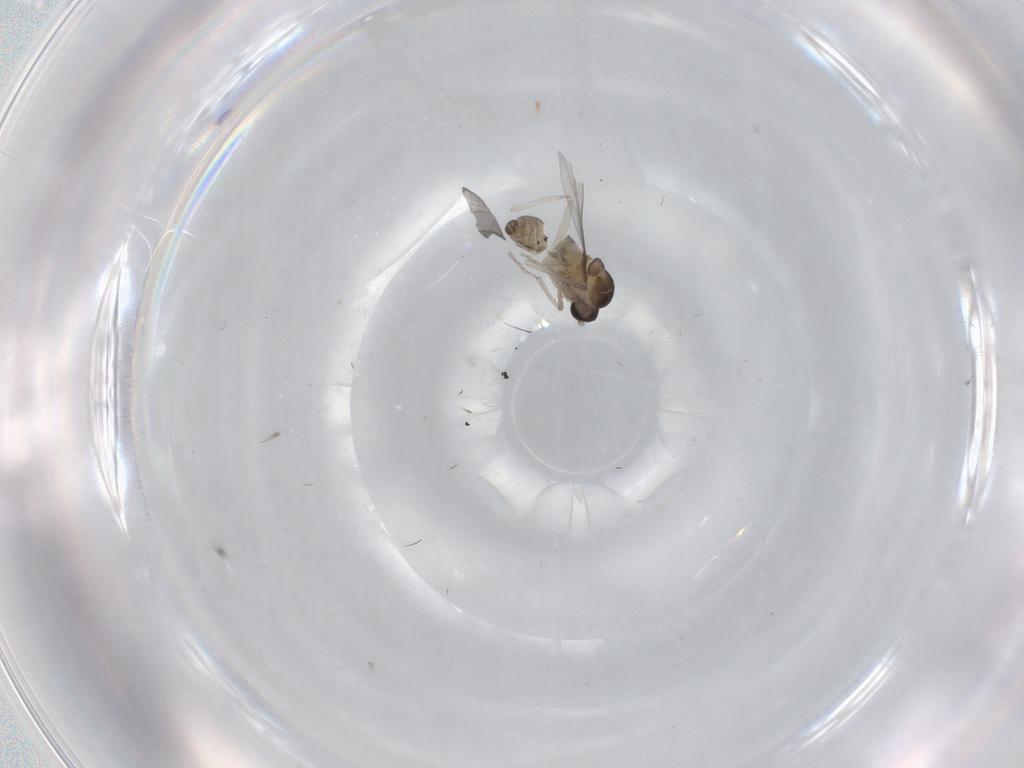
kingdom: Animalia
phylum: Arthropoda
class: Insecta
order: Diptera
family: Cecidomyiidae
